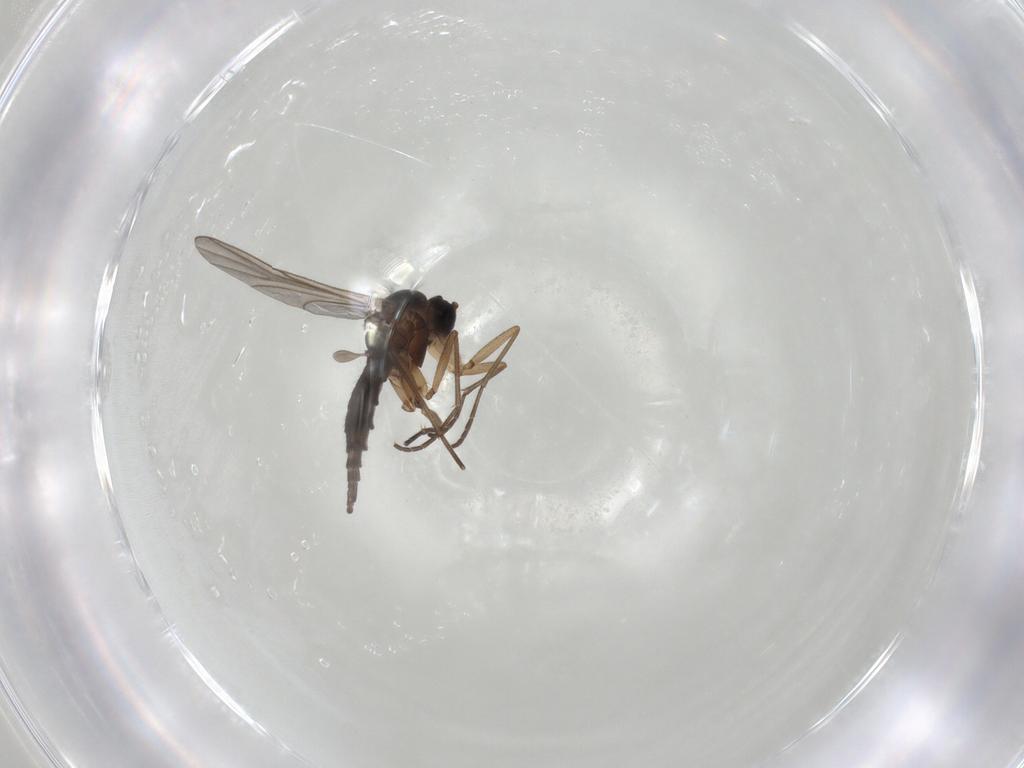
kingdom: Animalia
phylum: Arthropoda
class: Insecta
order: Diptera
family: Sciaridae
